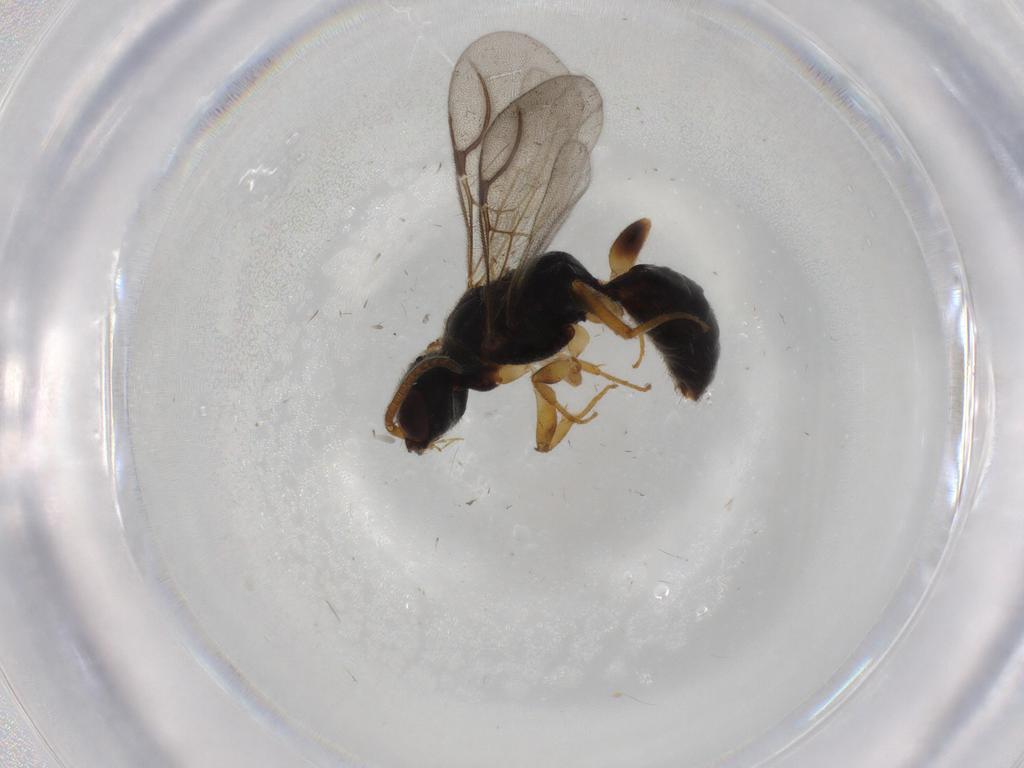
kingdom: Animalia
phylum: Arthropoda
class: Insecta
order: Hymenoptera
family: Bethylidae
